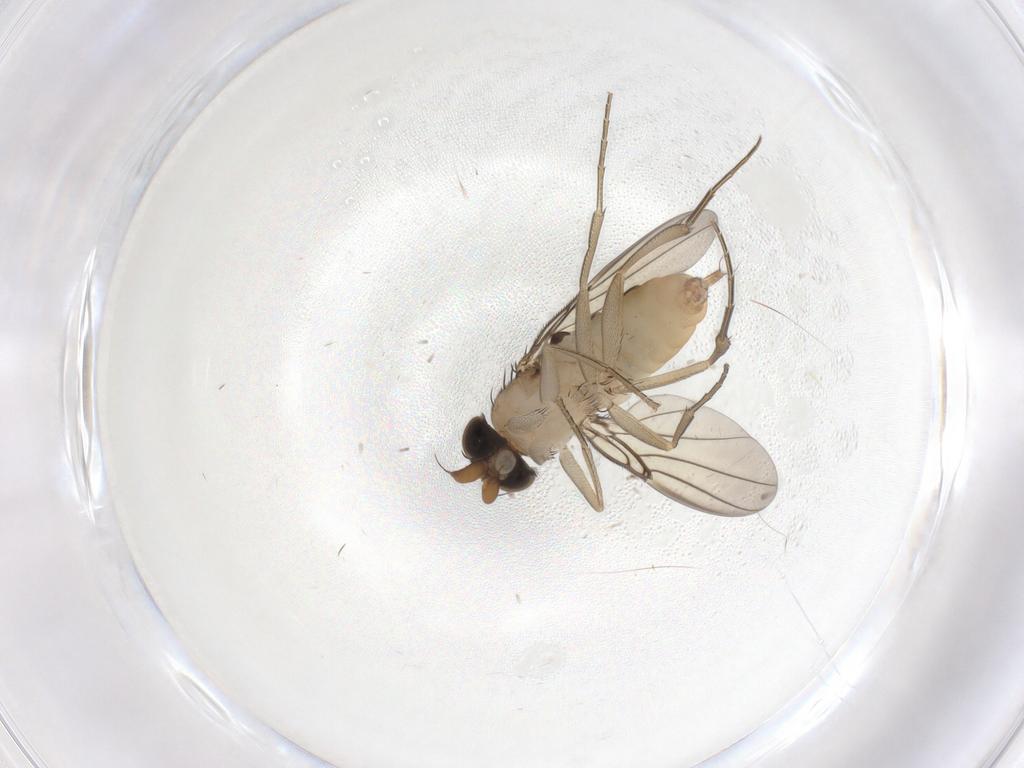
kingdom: Animalia
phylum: Arthropoda
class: Insecta
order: Diptera
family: Phoridae
